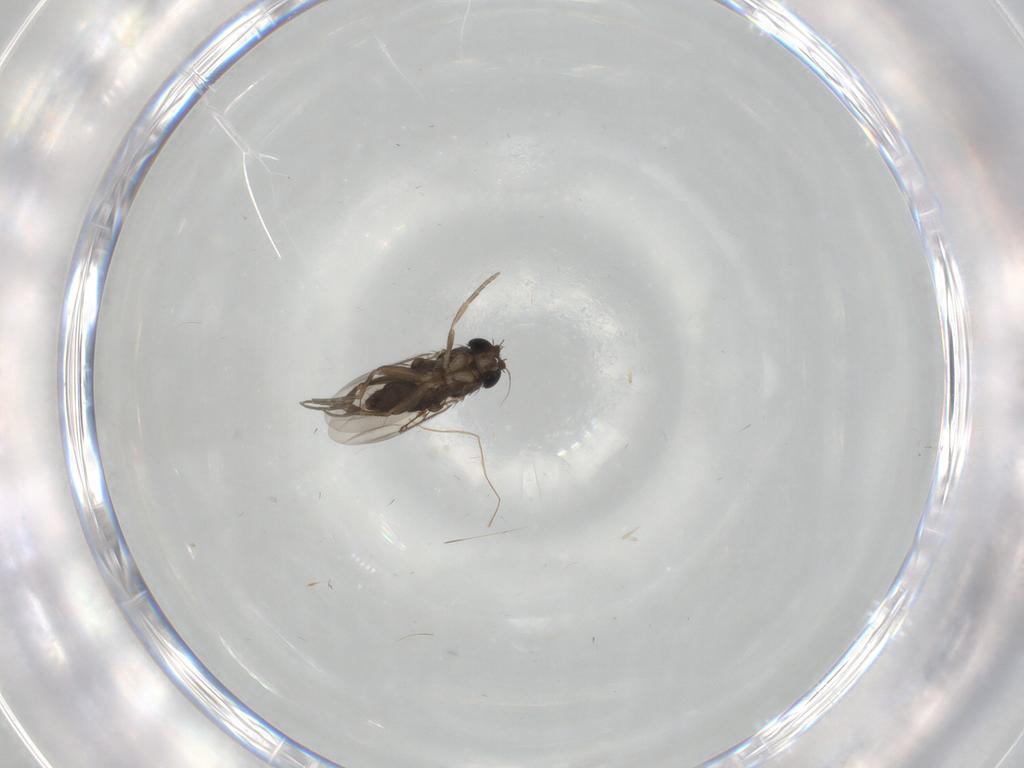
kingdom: Animalia
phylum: Arthropoda
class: Insecta
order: Diptera
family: Phoridae
